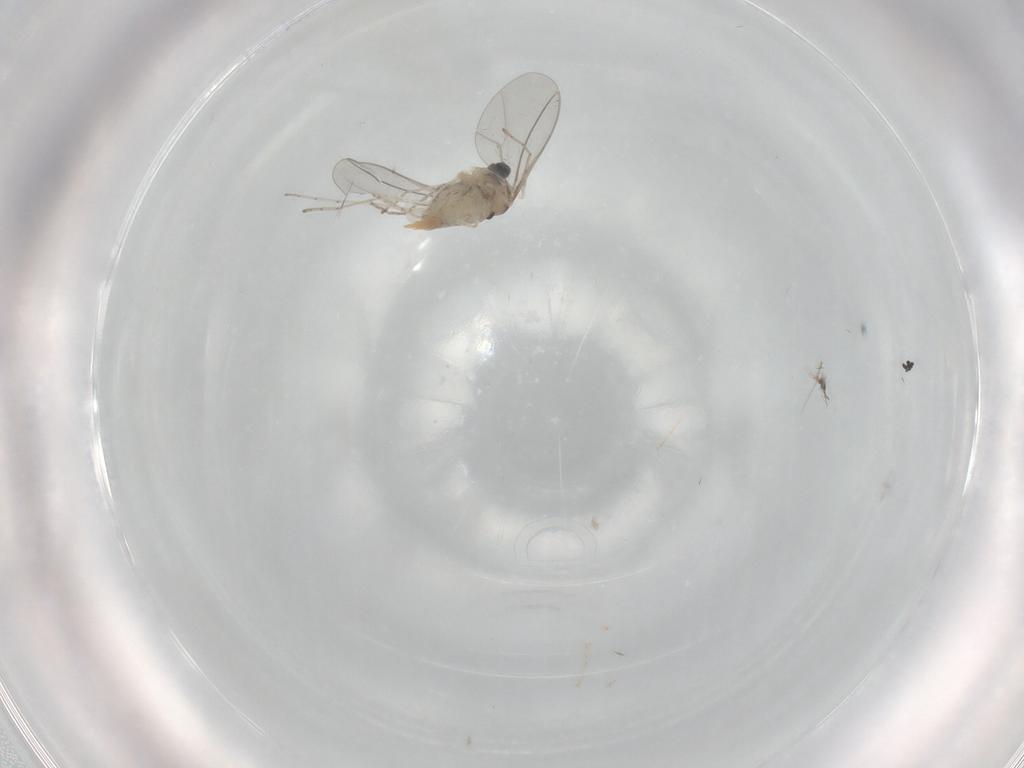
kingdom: Animalia
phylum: Arthropoda
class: Insecta
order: Diptera
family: Cecidomyiidae
